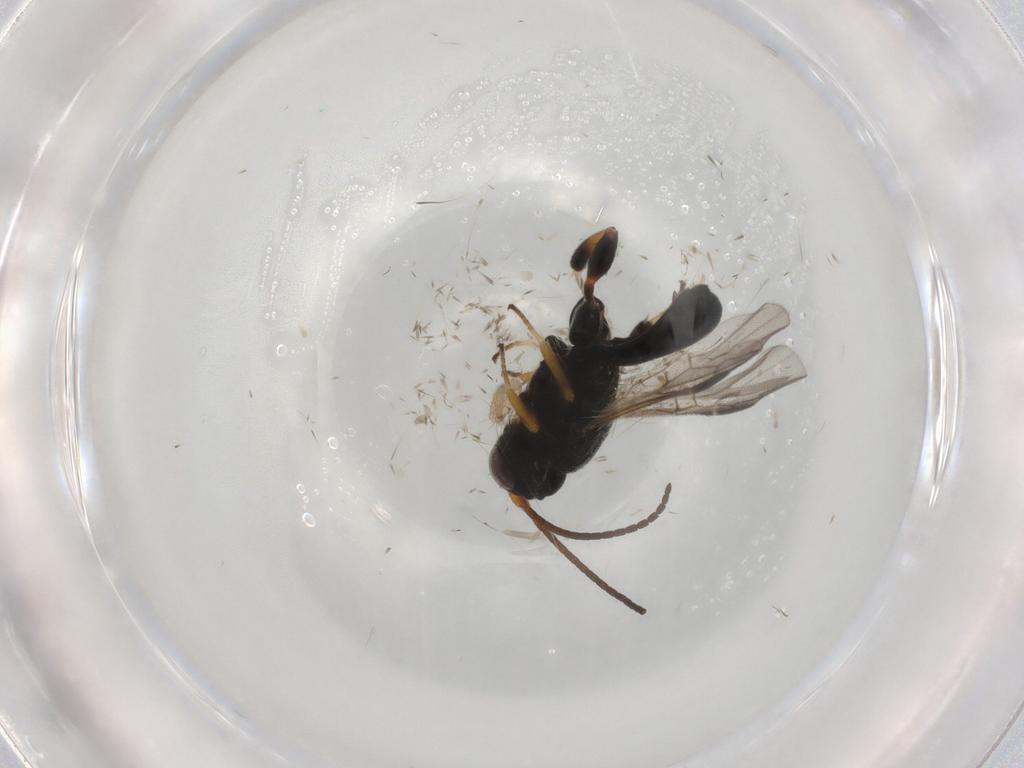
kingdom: Animalia
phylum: Arthropoda
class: Insecta
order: Hymenoptera
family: Braconidae
